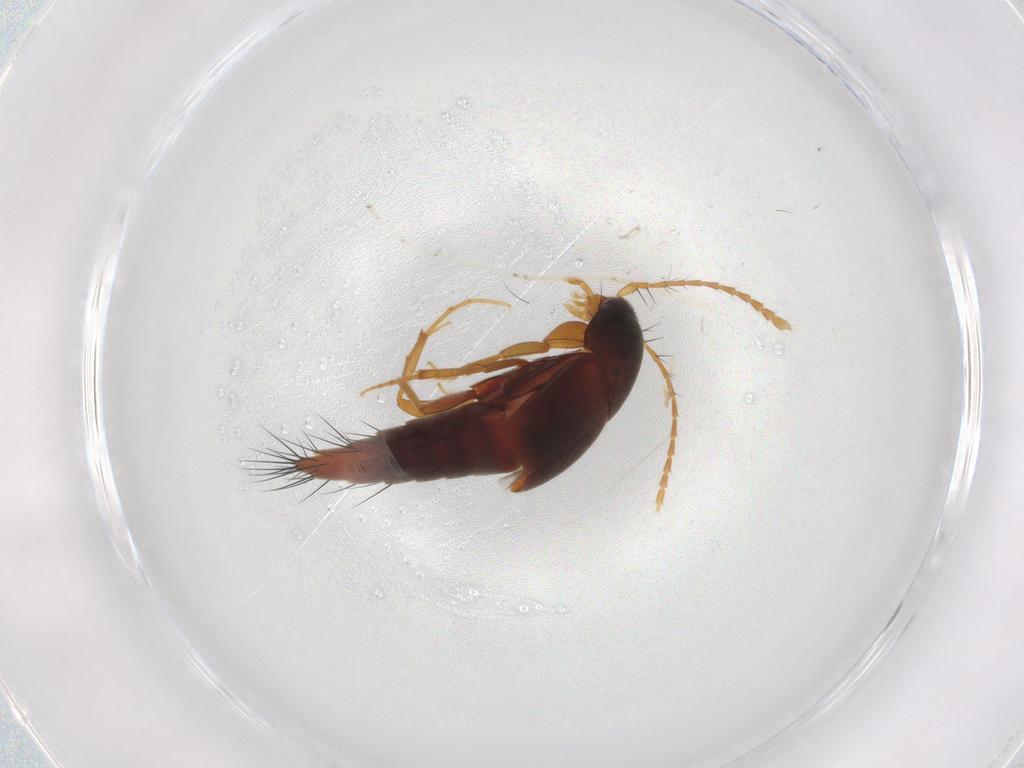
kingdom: Animalia
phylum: Arthropoda
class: Insecta
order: Coleoptera
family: Staphylinidae
